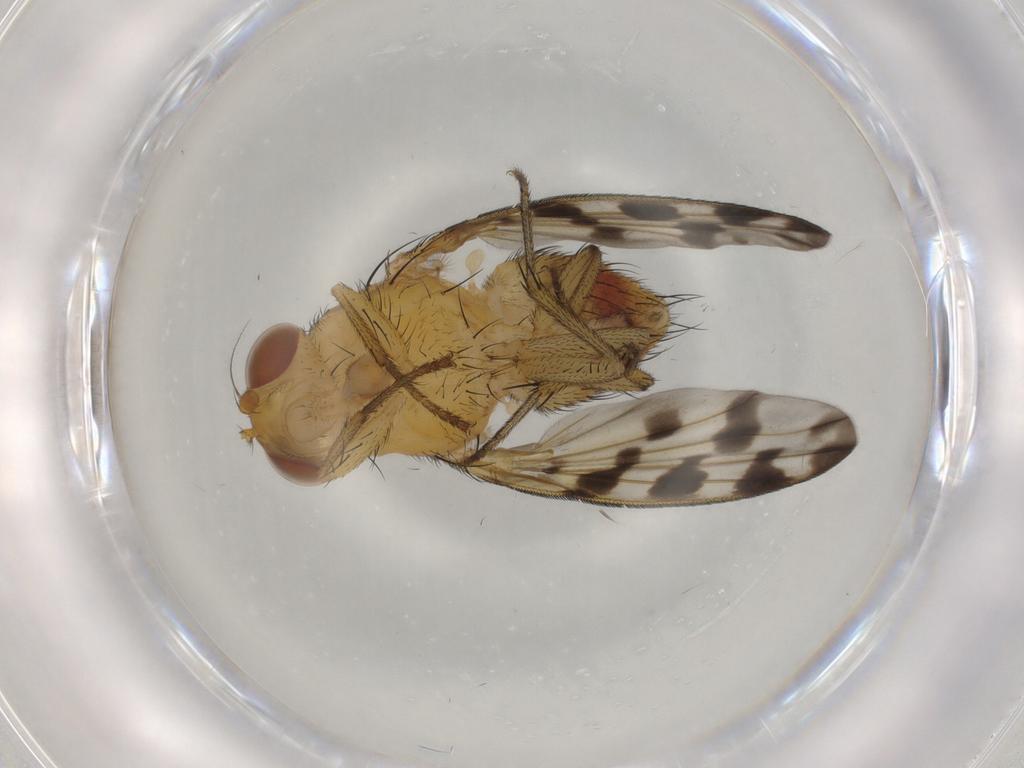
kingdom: Animalia
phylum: Arthropoda
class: Insecta
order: Diptera
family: Phoridae
